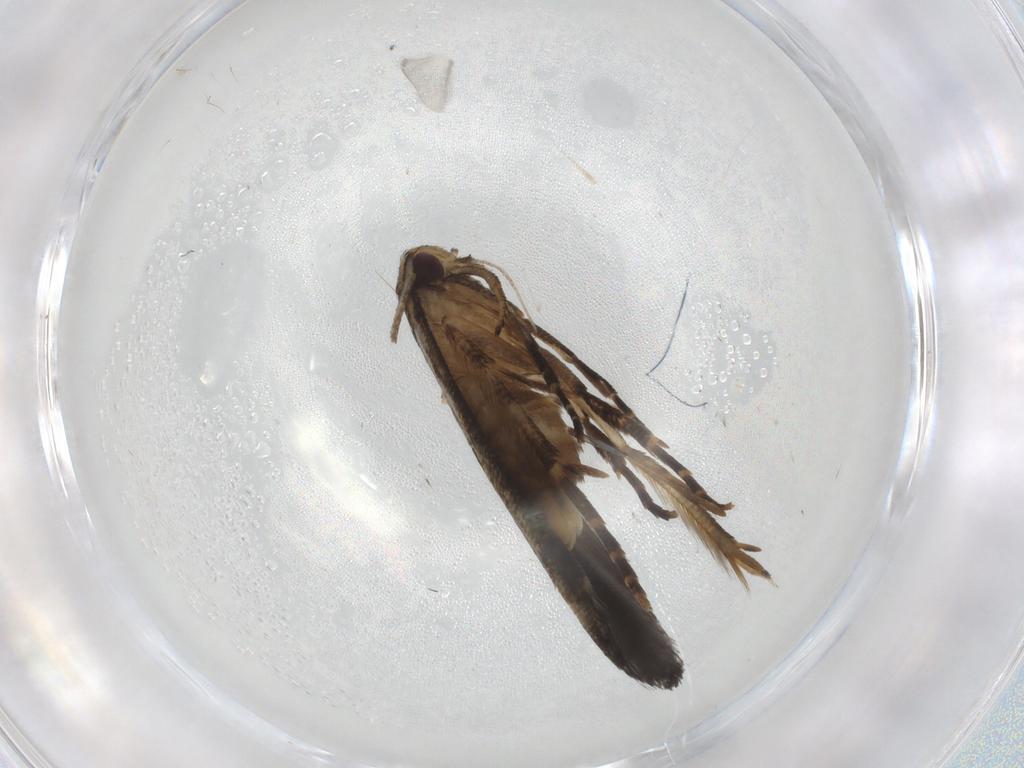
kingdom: Animalia
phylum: Arthropoda
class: Insecta
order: Lepidoptera
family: Cosmopterigidae
